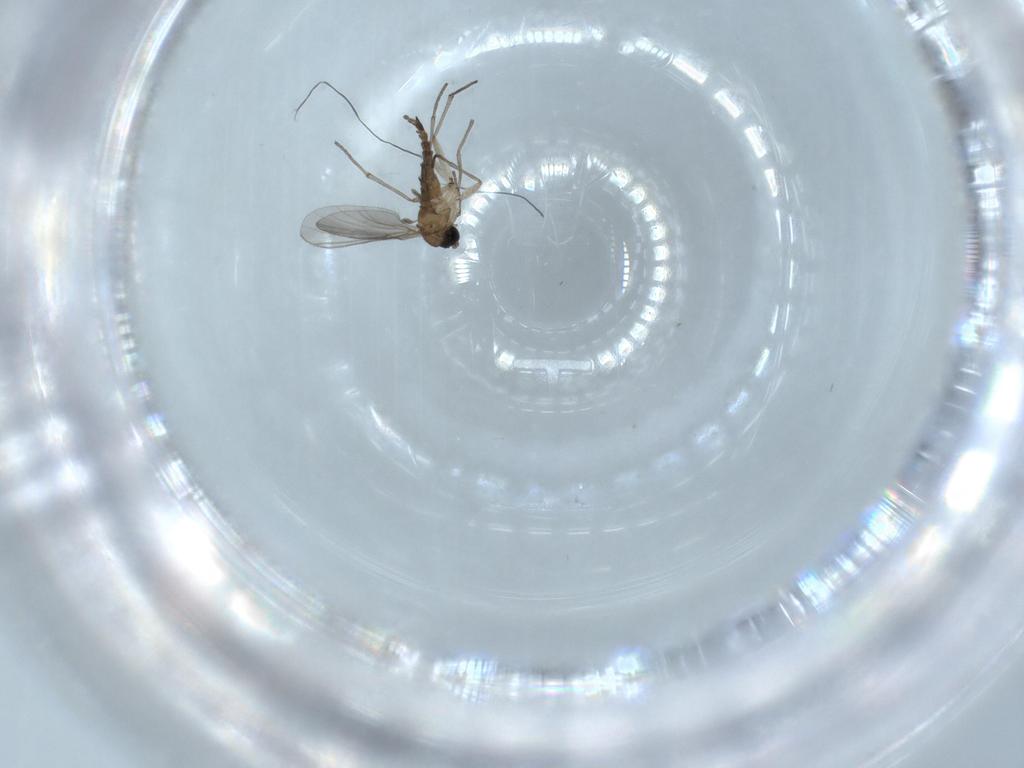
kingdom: Animalia
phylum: Arthropoda
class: Insecta
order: Diptera
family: Sciaridae
